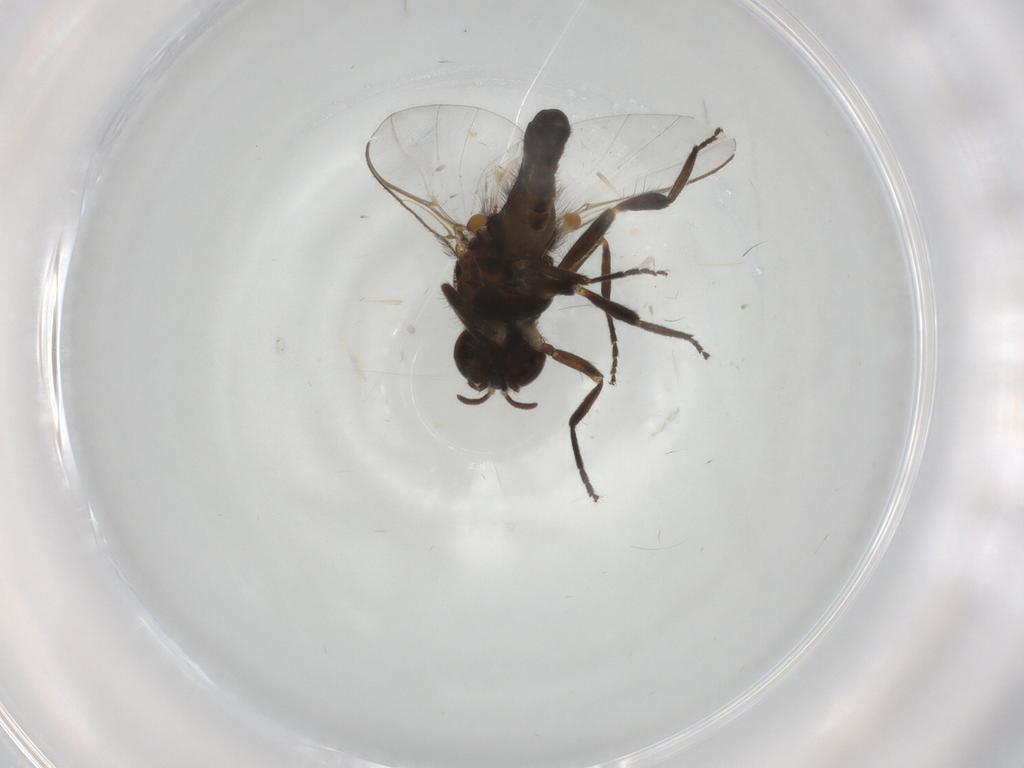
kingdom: Animalia
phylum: Arthropoda
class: Insecta
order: Diptera
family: Simuliidae
